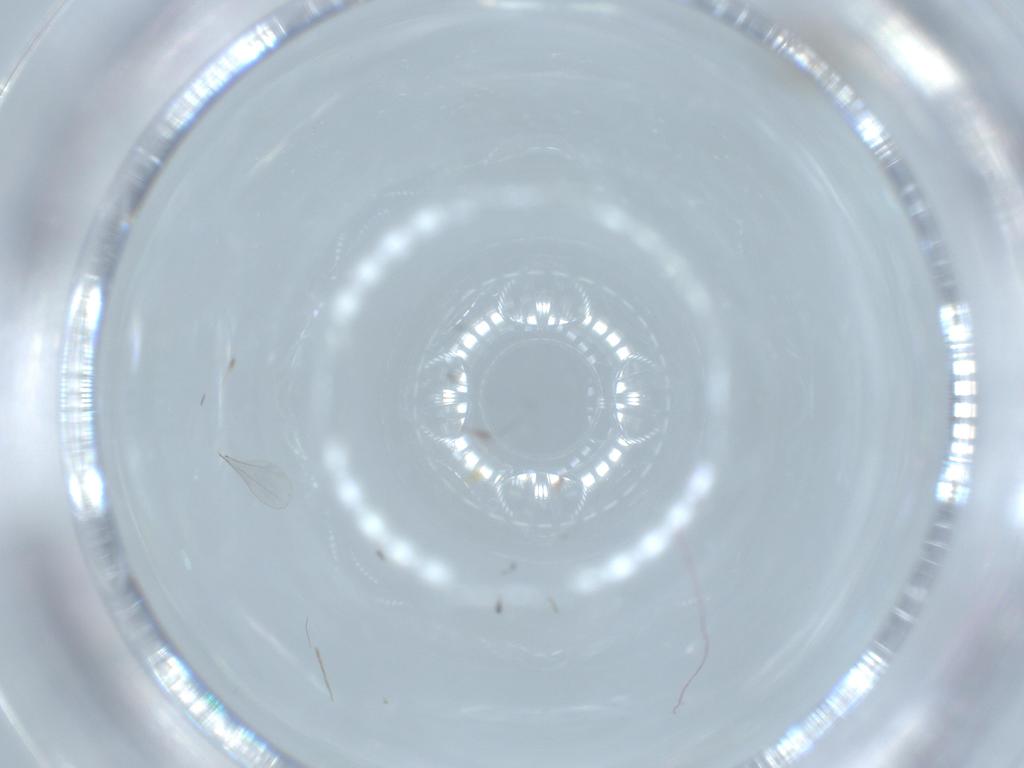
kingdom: Animalia
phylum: Arthropoda
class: Insecta
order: Diptera
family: Cecidomyiidae
